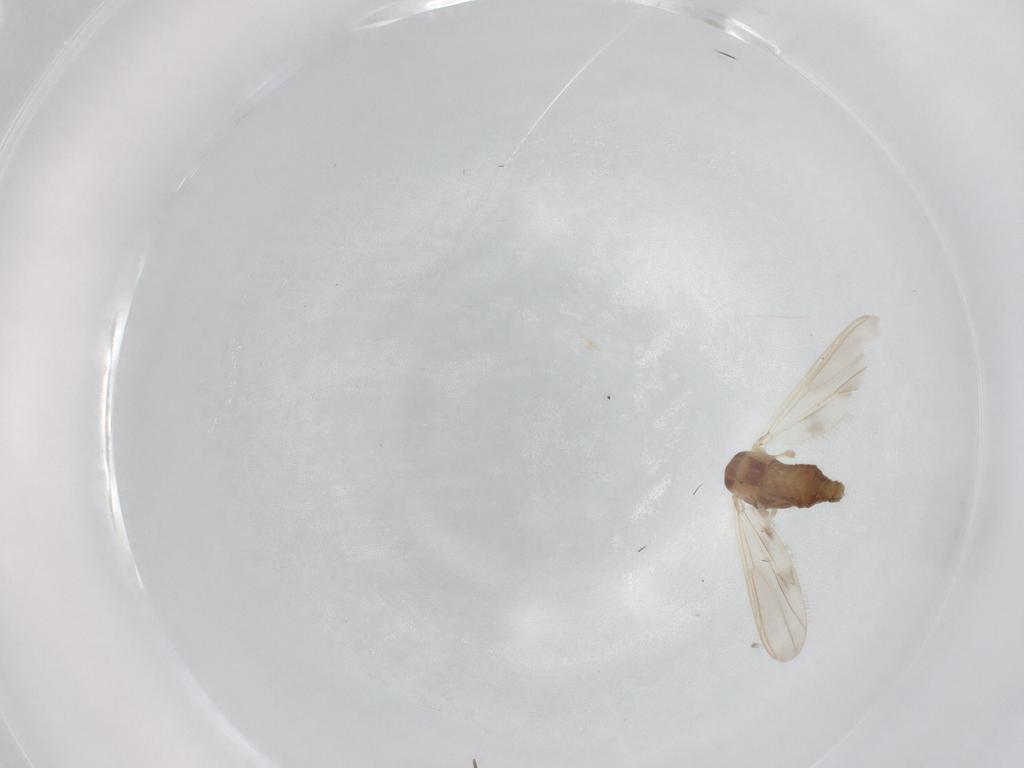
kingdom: Animalia
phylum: Arthropoda
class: Insecta
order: Diptera
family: Chironomidae
